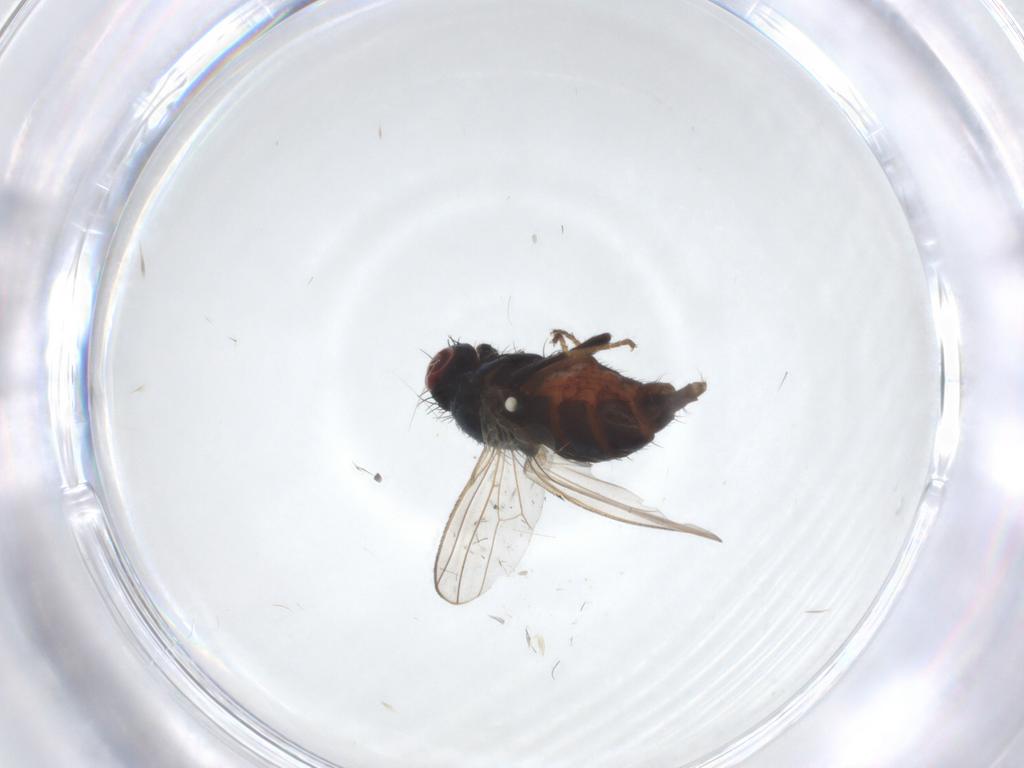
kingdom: Animalia
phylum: Arthropoda
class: Insecta
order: Diptera
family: Carnidae
